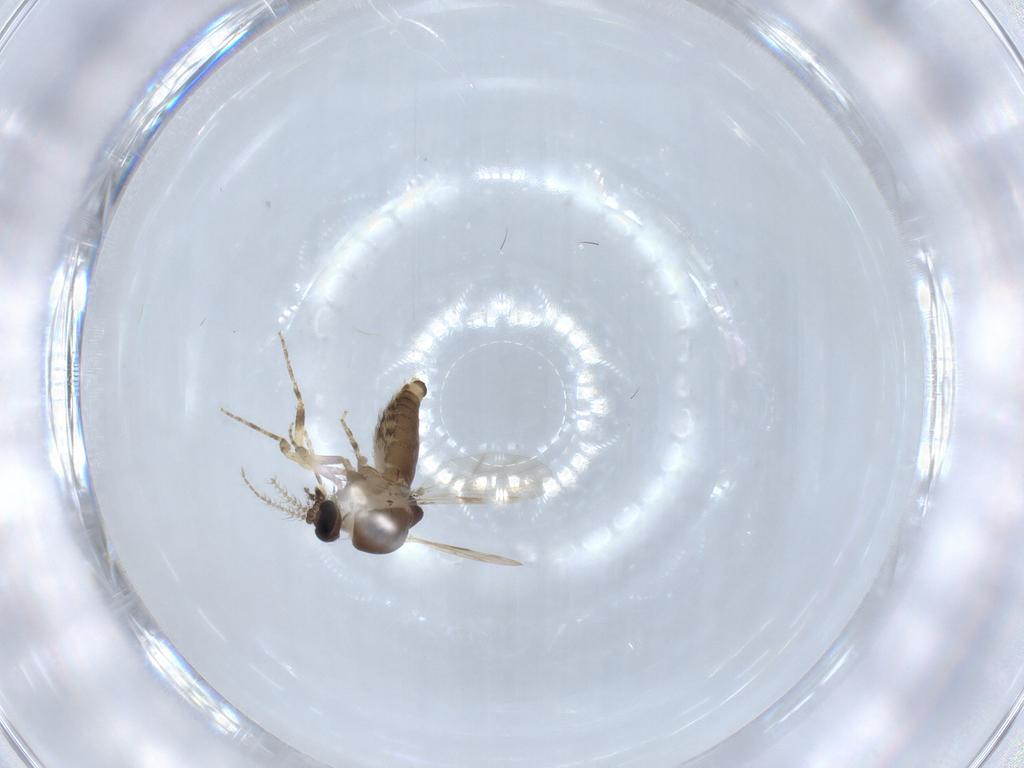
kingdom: Animalia
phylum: Arthropoda
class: Insecta
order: Diptera
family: Ceratopogonidae
